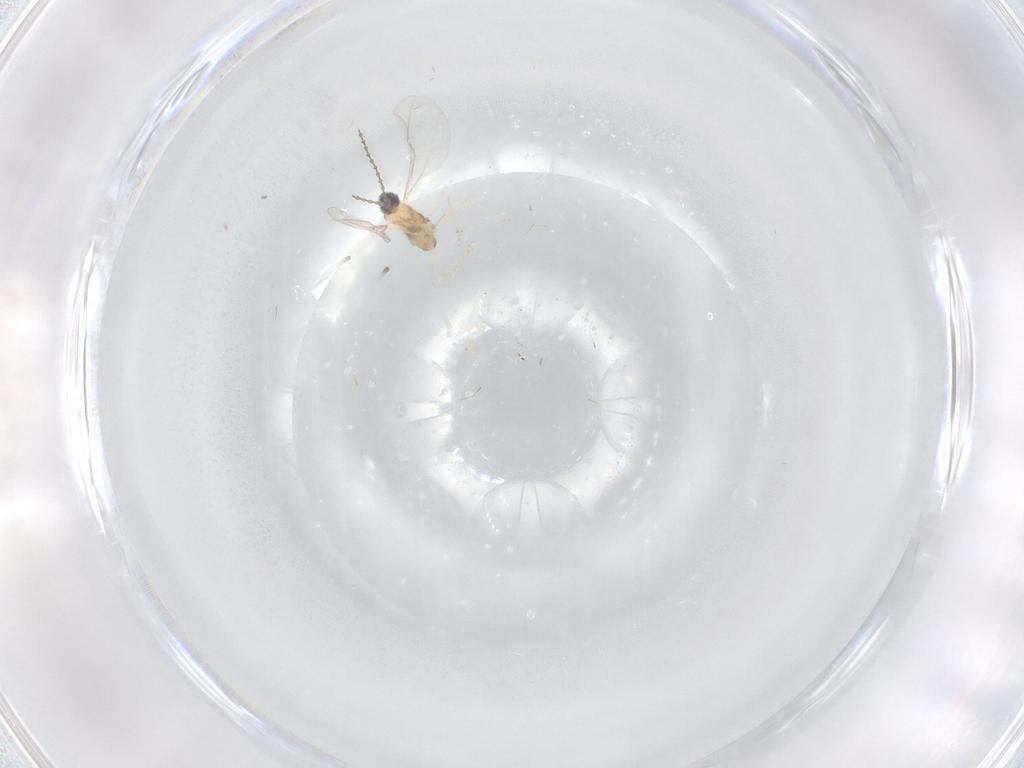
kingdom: Animalia
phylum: Arthropoda
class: Insecta
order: Diptera
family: Cecidomyiidae
